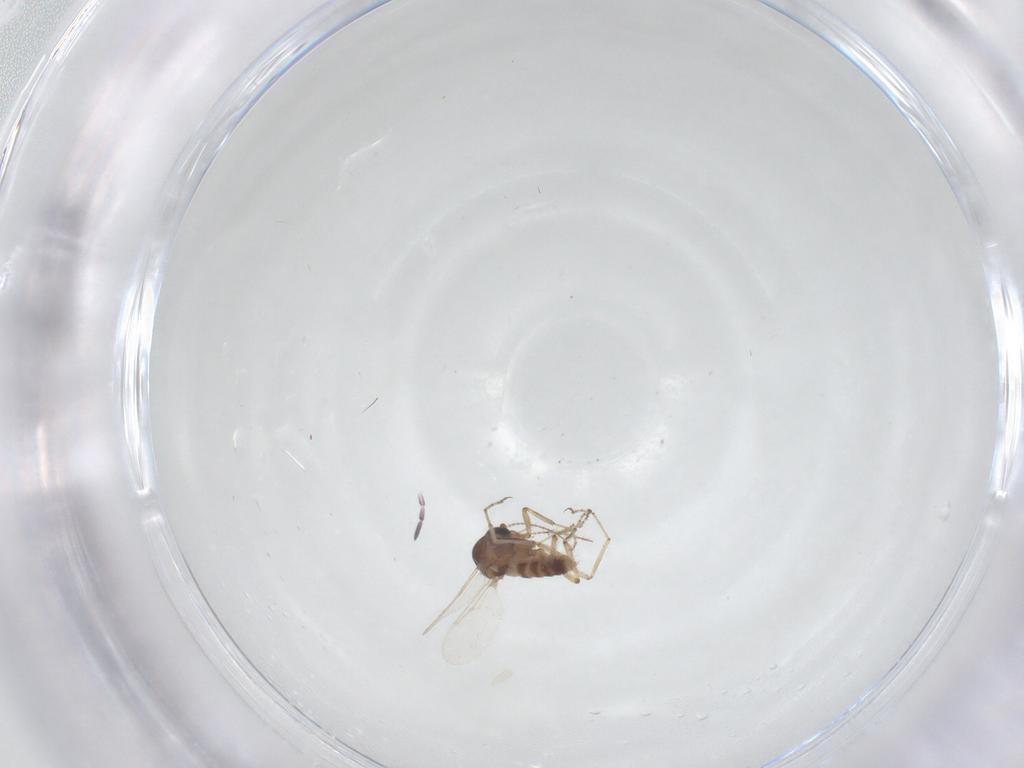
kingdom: Animalia
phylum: Arthropoda
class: Insecta
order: Diptera
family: Ceratopogonidae
